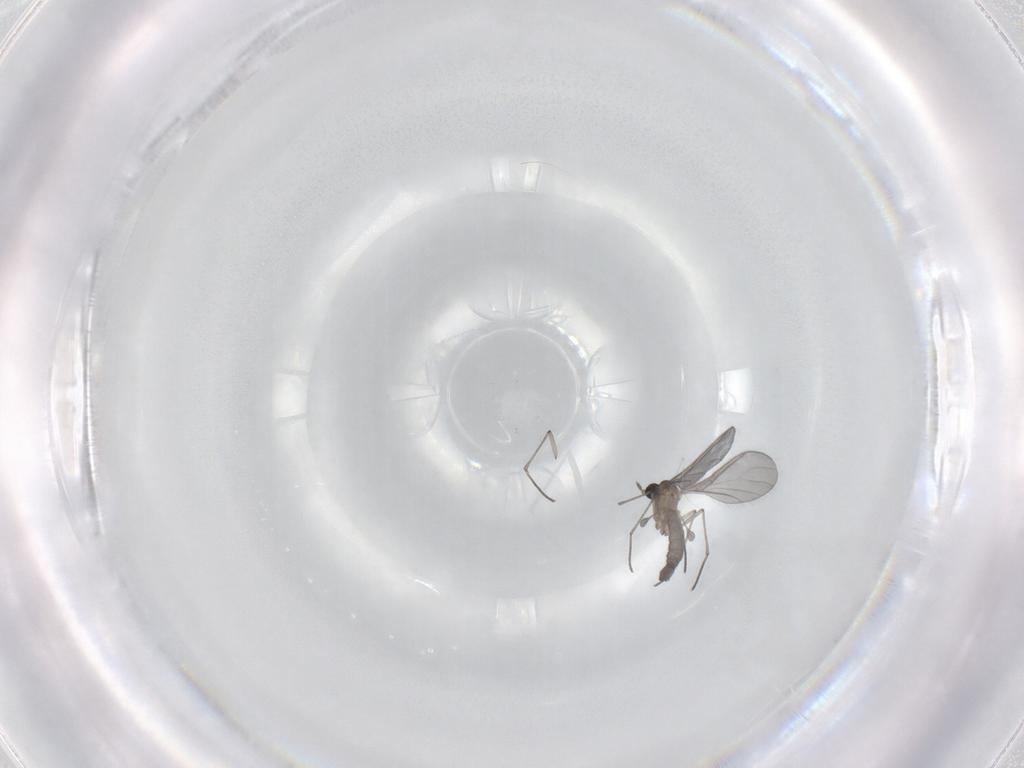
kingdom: Animalia
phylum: Arthropoda
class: Insecta
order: Diptera
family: Sciaridae
